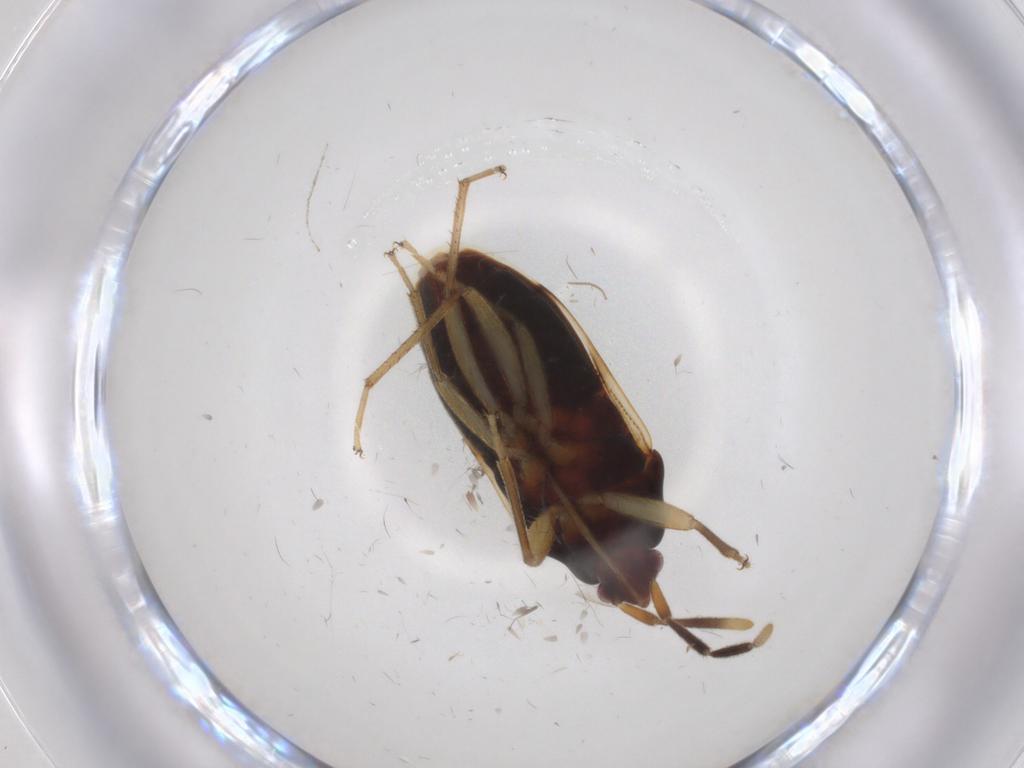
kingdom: Animalia
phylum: Arthropoda
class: Insecta
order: Hemiptera
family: Rhyparochromidae
